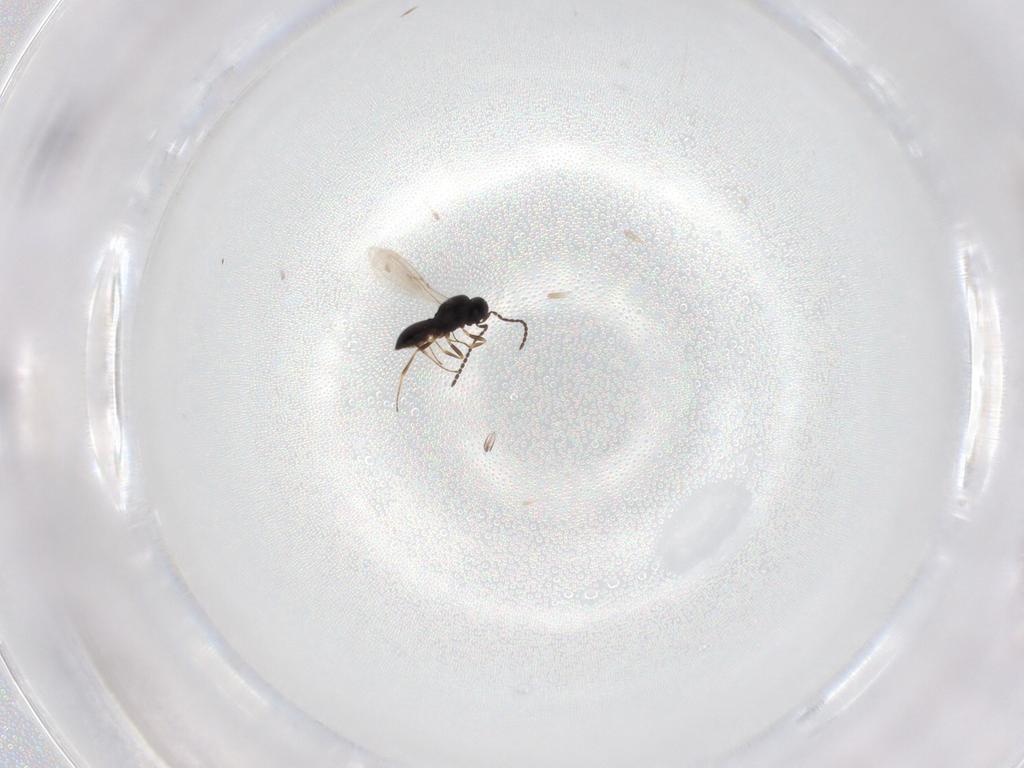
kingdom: Animalia
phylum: Arthropoda
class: Insecta
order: Hymenoptera
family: Scelionidae
